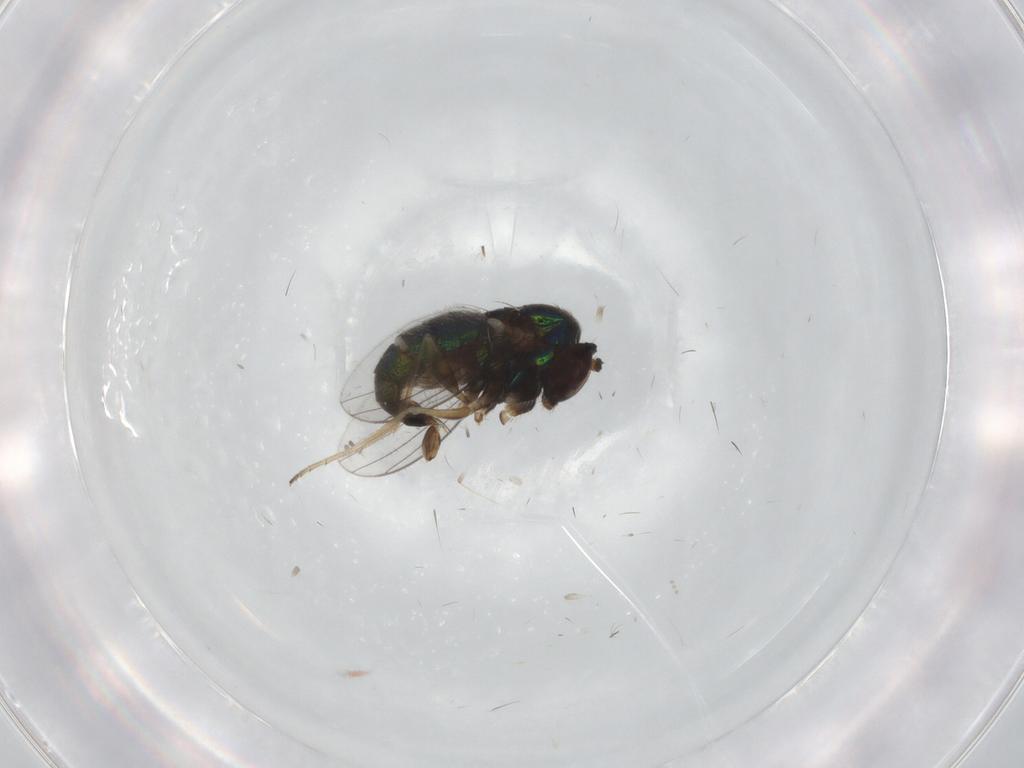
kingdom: Animalia
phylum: Arthropoda
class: Insecta
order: Diptera
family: Dolichopodidae
